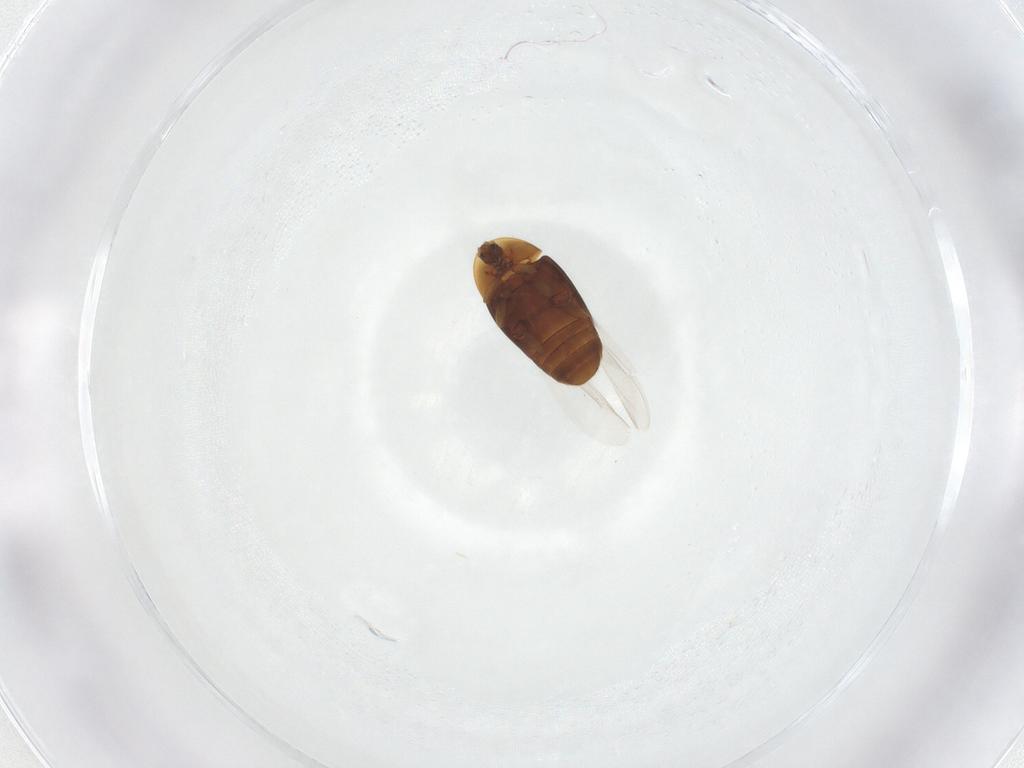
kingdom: Animalia
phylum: Arthropoda
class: Insecta
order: Coleoptera
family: Corylophidae
